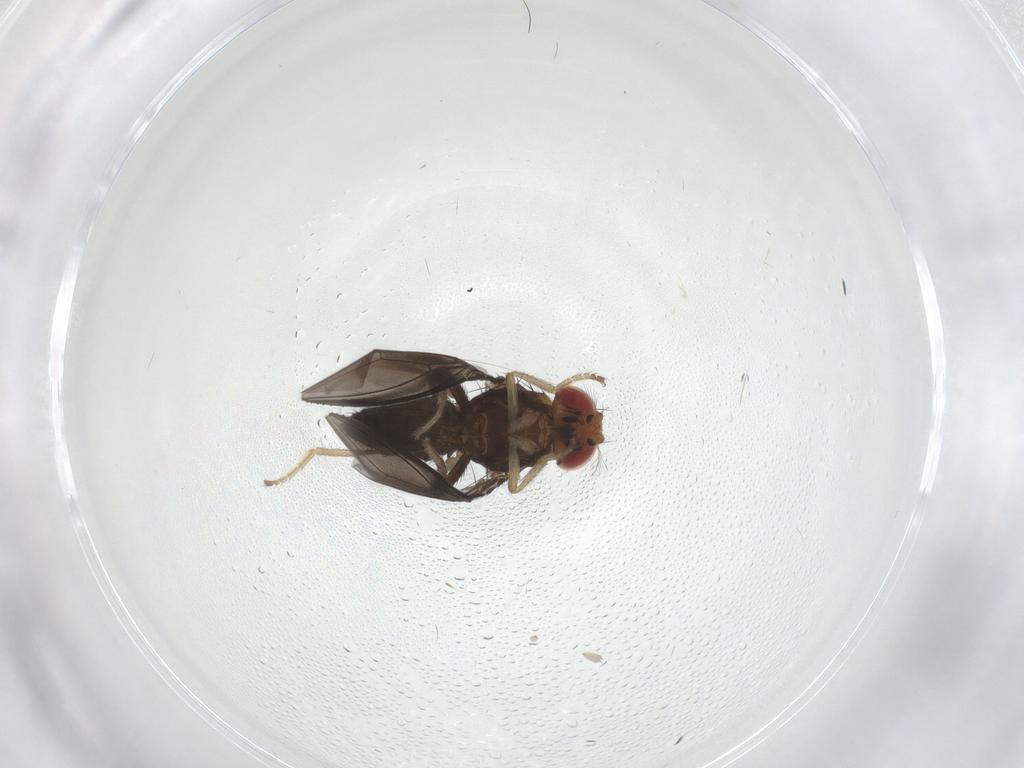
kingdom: Animalia
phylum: Arthropoda
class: Insecta
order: Diptera
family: Drosophilidae
